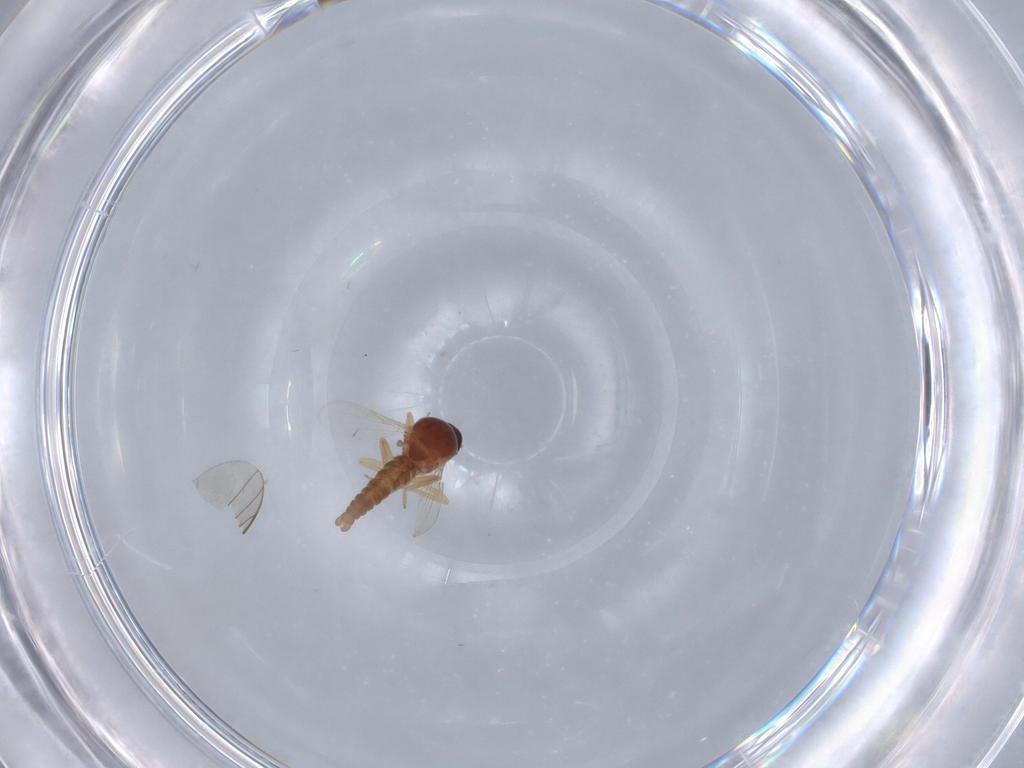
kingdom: Animalia
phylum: Arthropoda
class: Insecta
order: Diptera
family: Ceratopogonidae
